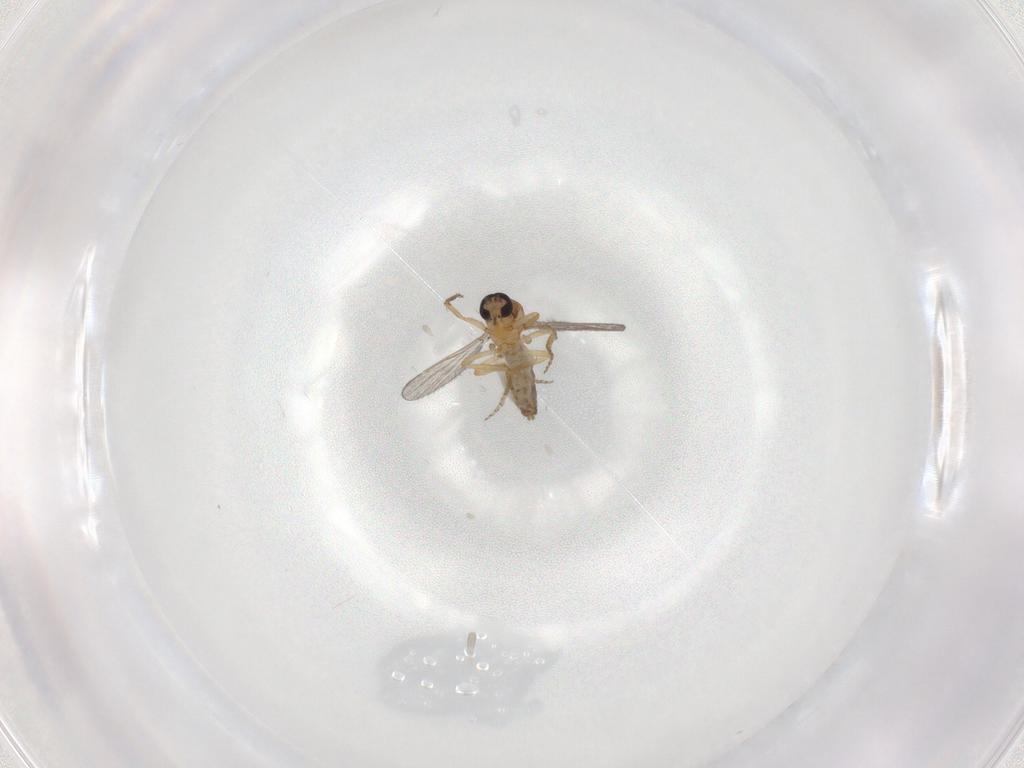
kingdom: Animalia
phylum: Arthropoda
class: Insecta
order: Diptera
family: Ceratopogonidae
